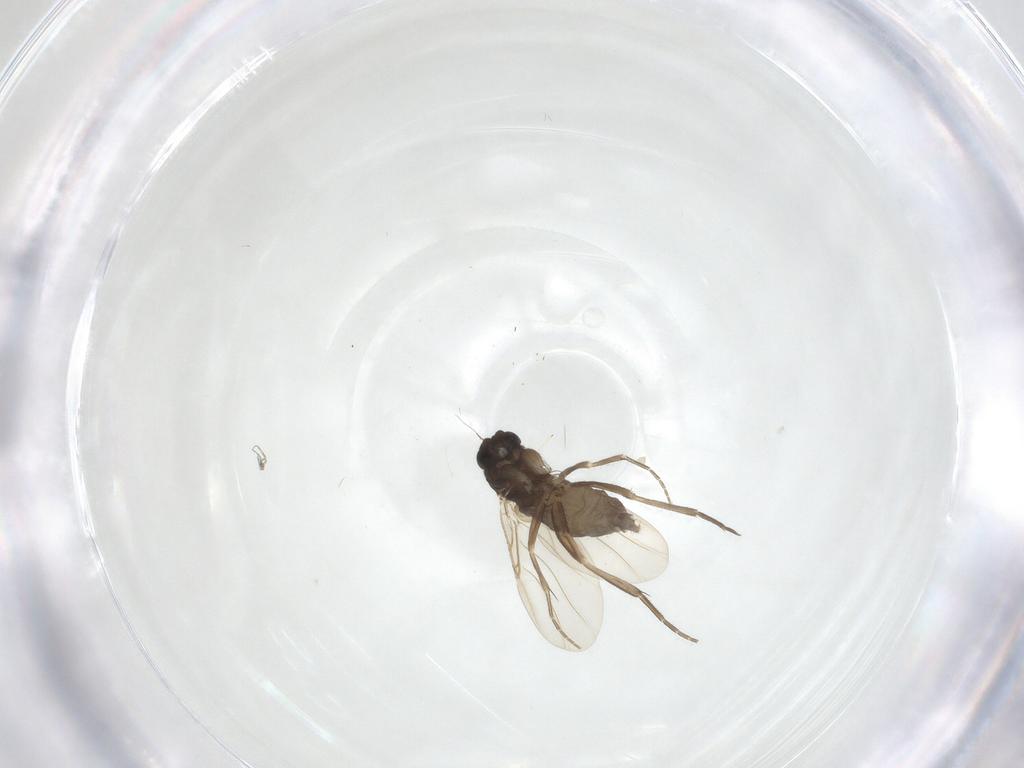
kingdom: Animalia
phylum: Arthropoda
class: Insecta
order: Diptera
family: Phoridae
